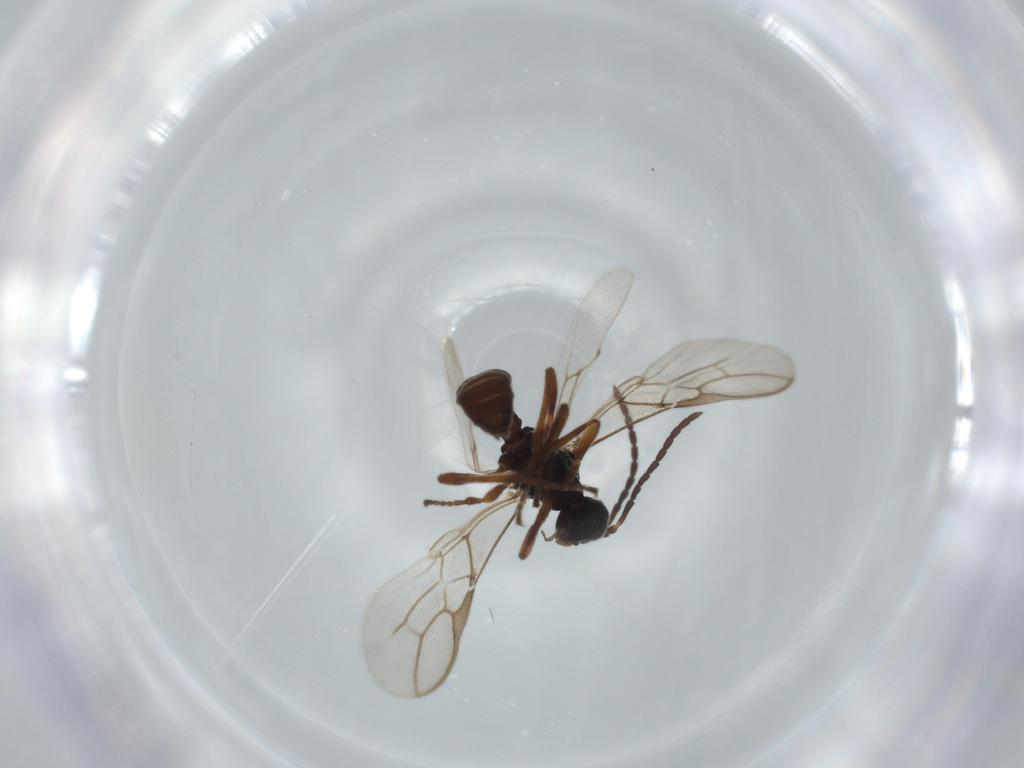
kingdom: Animalia
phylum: Arthropoda
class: Insecta
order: Hymenoptera
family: Braconidae
